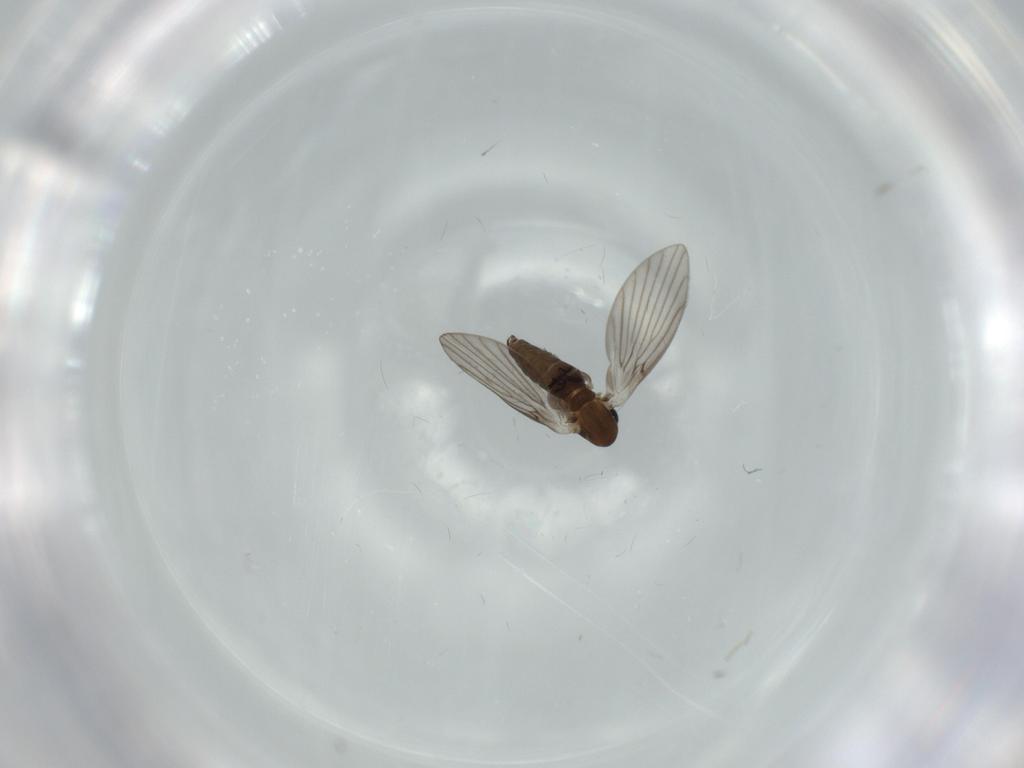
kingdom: Animalia
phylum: Arthropoda
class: Insecta
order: Diptera
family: Psychodidae
